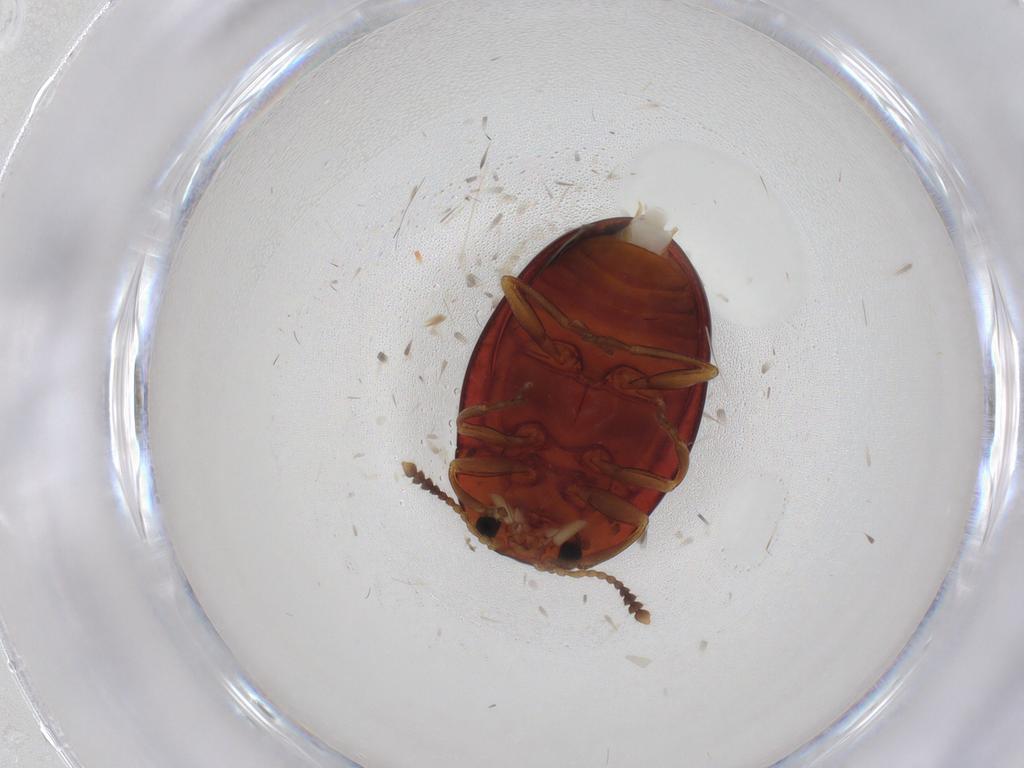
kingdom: Animalia
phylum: Arthropoda
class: Insecta
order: Coleoptera
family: Erotylidae
